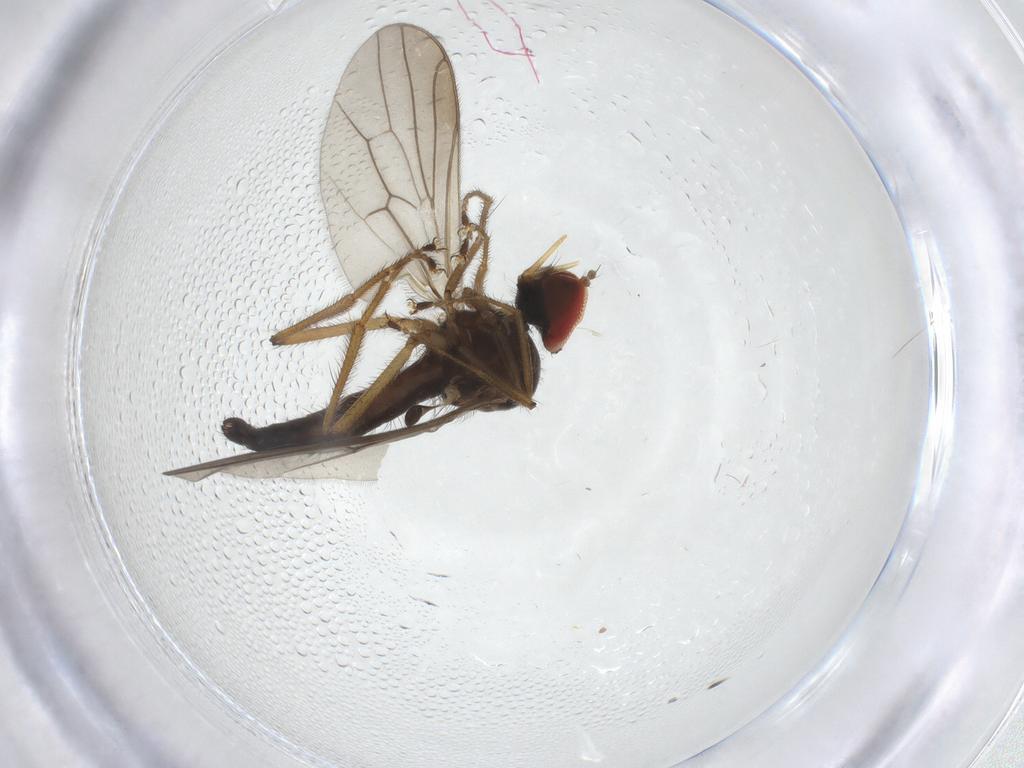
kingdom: Animalia
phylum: Arthropoda
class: Insecta
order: Diptera
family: Hybotidae
